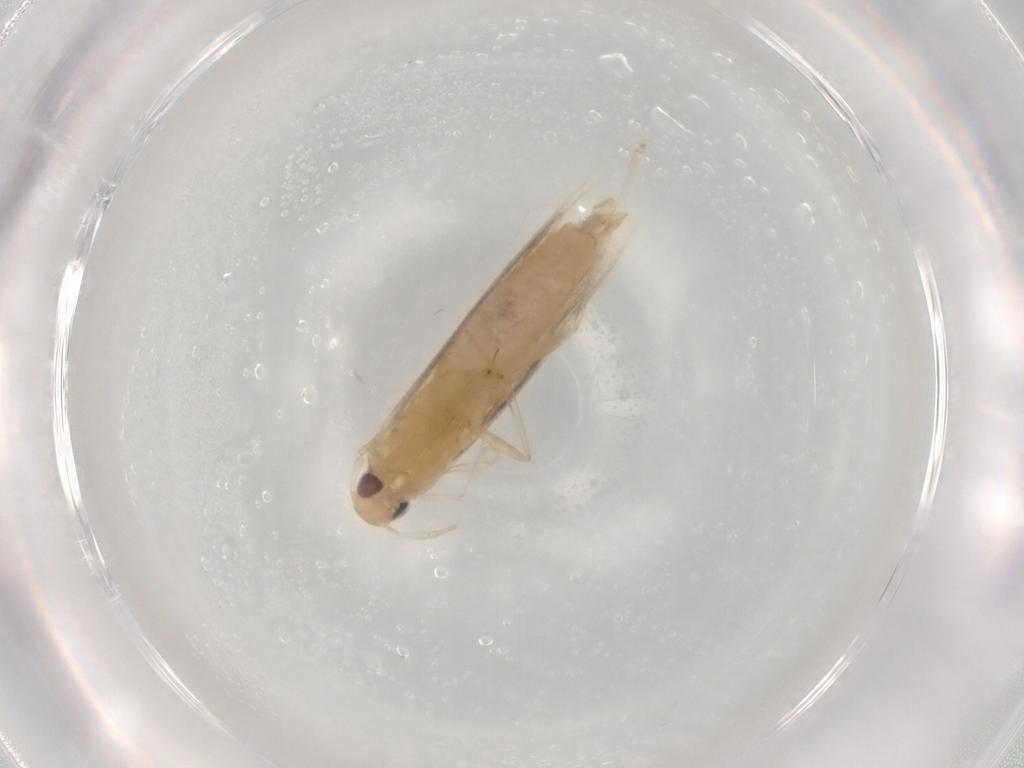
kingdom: Animalia
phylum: Arthropoda
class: Insecta
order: Lepidoptera
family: Cosmopterigidae
